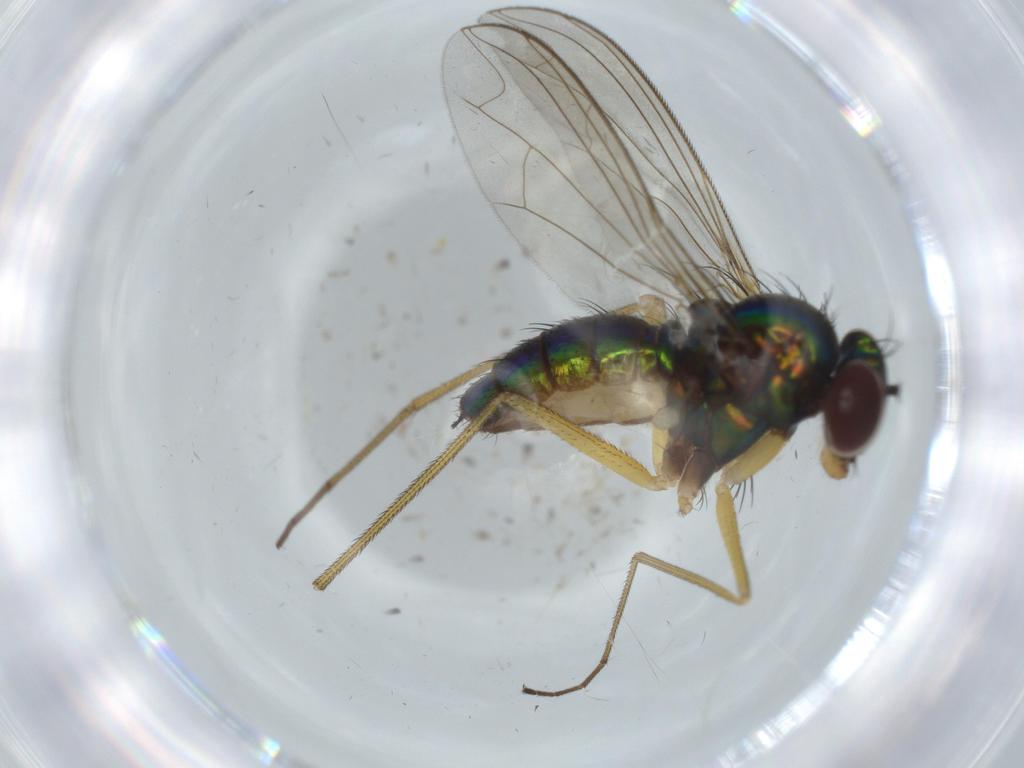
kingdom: Animalia
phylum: Arthropoda
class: Insecta
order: Diptera
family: Dolichopodidae
